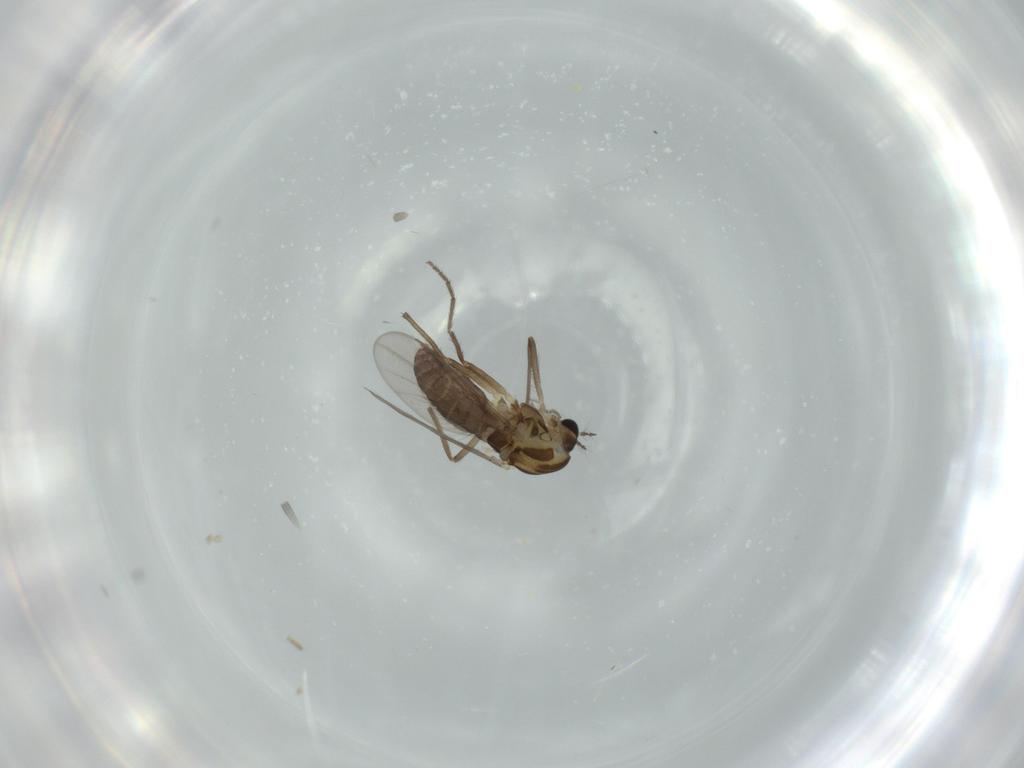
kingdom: Animalia
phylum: Arthropoda
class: Insecta
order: Diptera
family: Chironomidae
